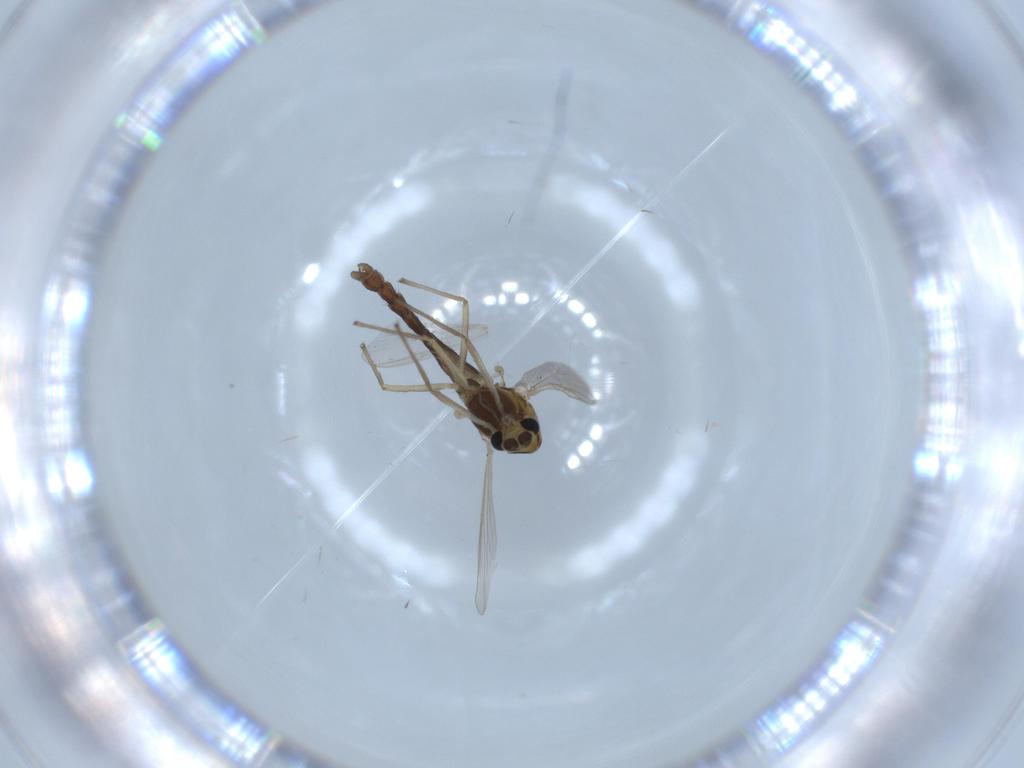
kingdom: Animalia
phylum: Arthropoda
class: Insecta
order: Diptera
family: Chironomidae
